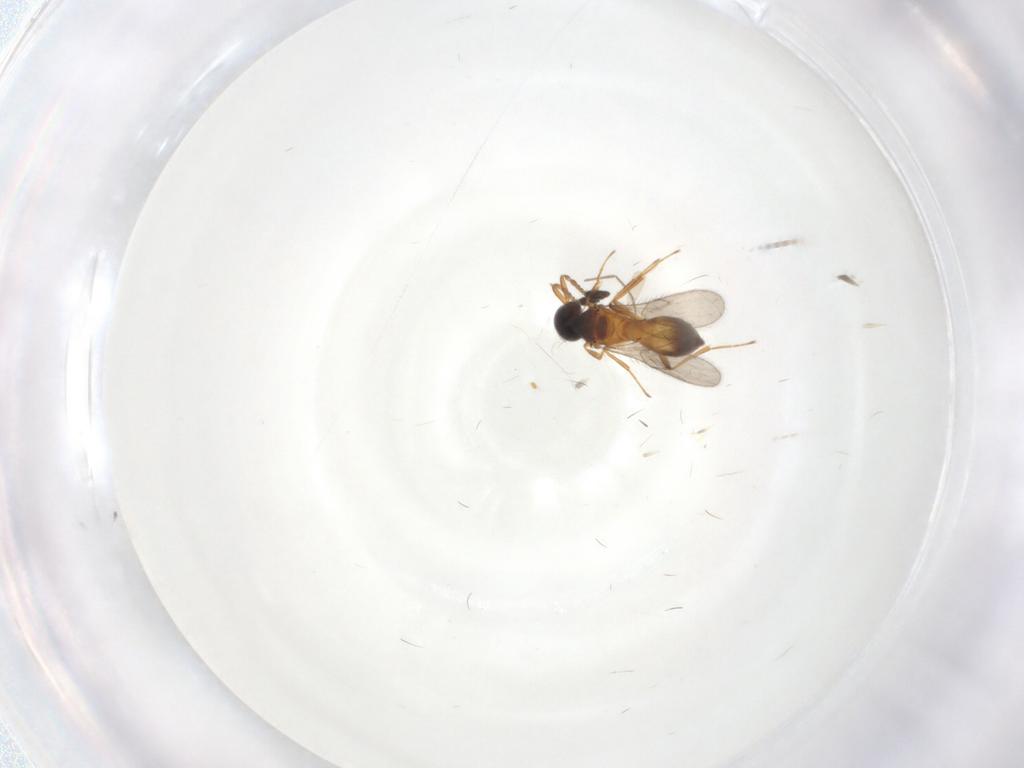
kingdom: Animalia
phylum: Arthropoda
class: Insecta
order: Hymenoptera
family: Scelionidae
